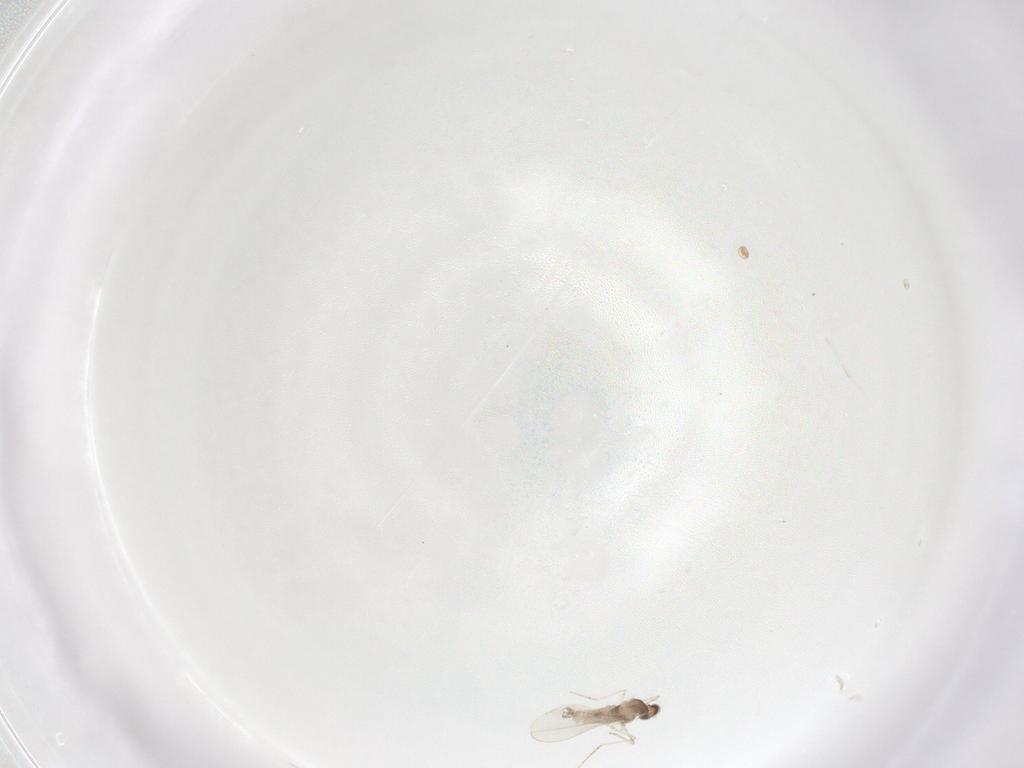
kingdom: Animalia
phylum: Arthropoda
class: Insecta
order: Diptera
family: Cecidomyiidae
